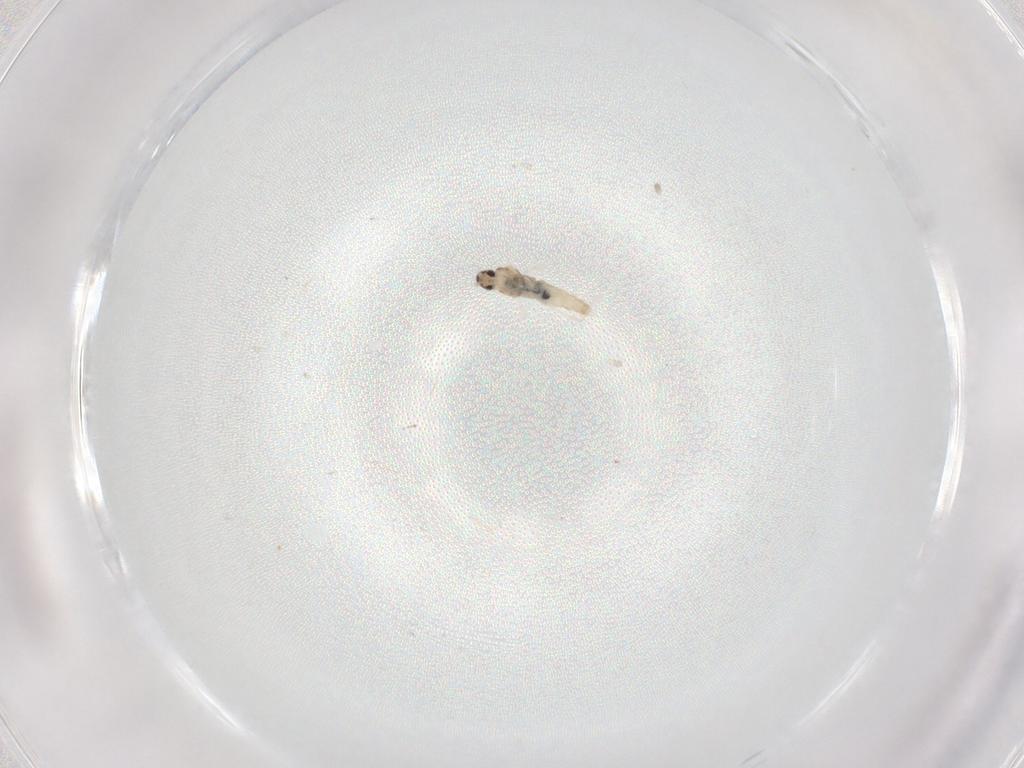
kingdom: Animalia
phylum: Arthropoda
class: Insecta
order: Diptera
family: Cecidomyiidae
